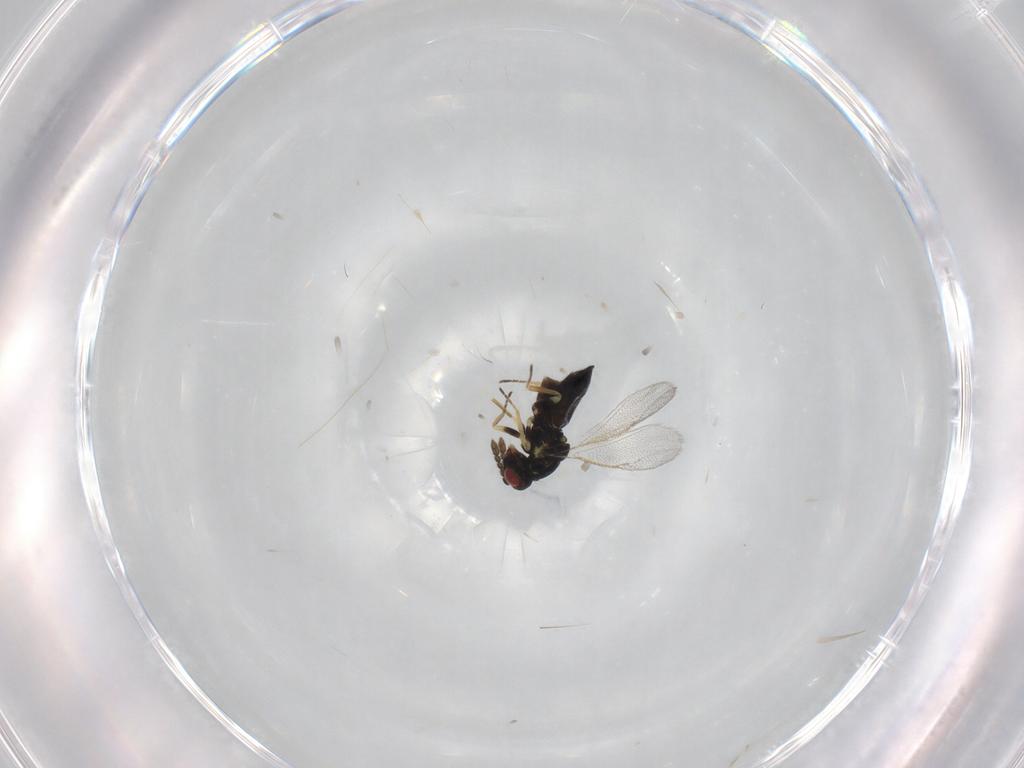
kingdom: Animalia
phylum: Arthropoda
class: Insecta
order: Hymenoptera
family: Eulophidae
